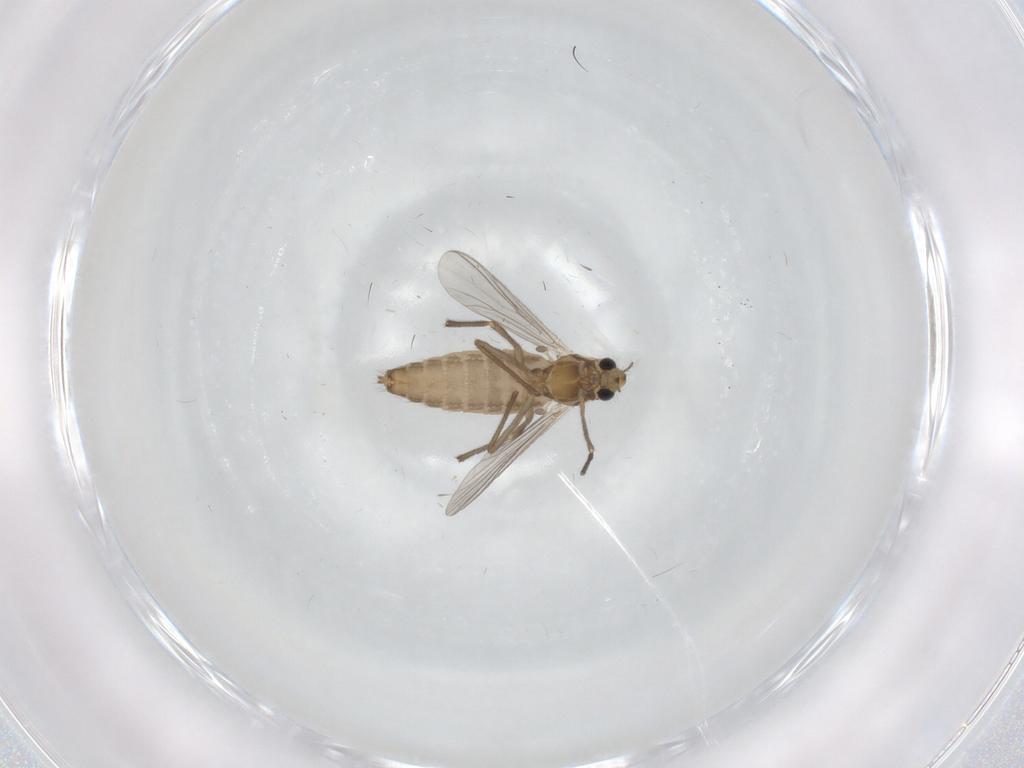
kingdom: Animalia
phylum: Arthropoda
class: Insecta
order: Diptera
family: Chironomidae
